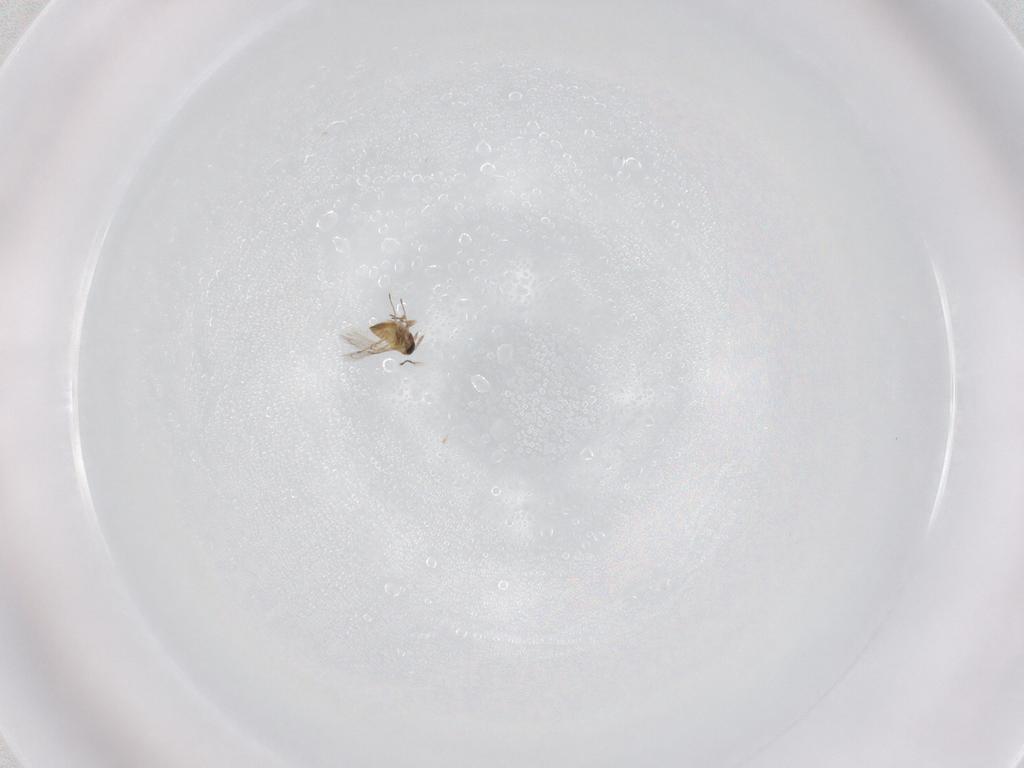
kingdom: Animalia
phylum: Arthropoda
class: Insecta
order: Hymenoptera
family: Trichogrammatidae
